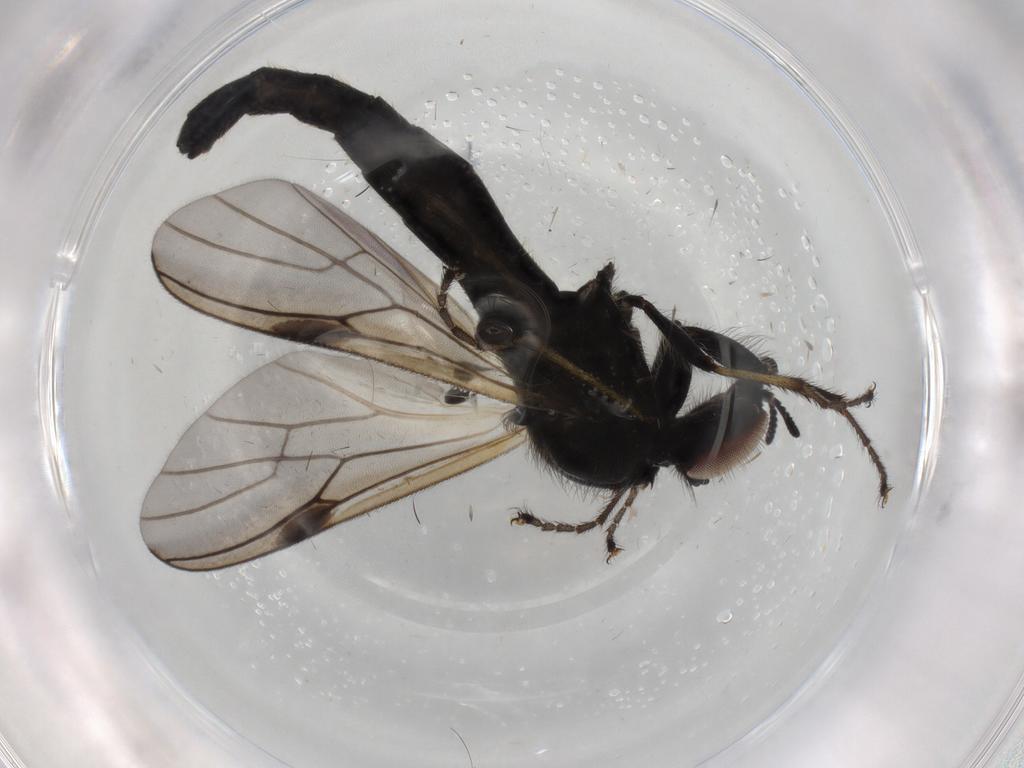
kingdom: Animalia
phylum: Arthropoda
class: Insecta
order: Diptera
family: Bibionidae
